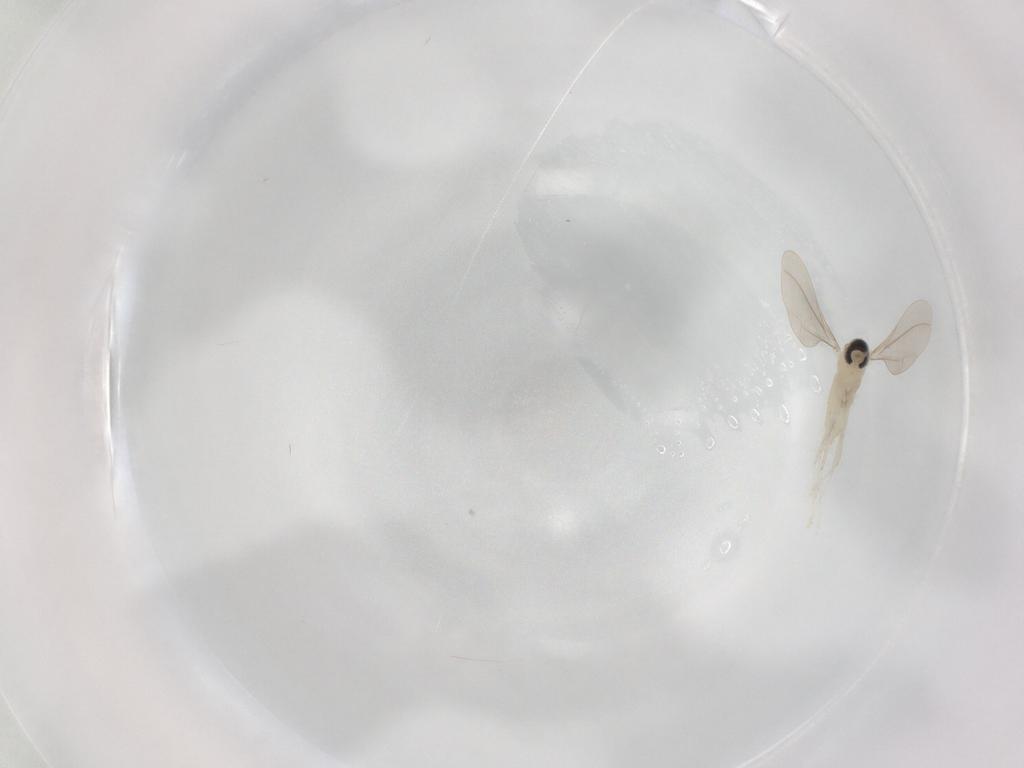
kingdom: Animalia
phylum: Arthropoda
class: Insecta
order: Diptera
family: Cecidomyiidae
